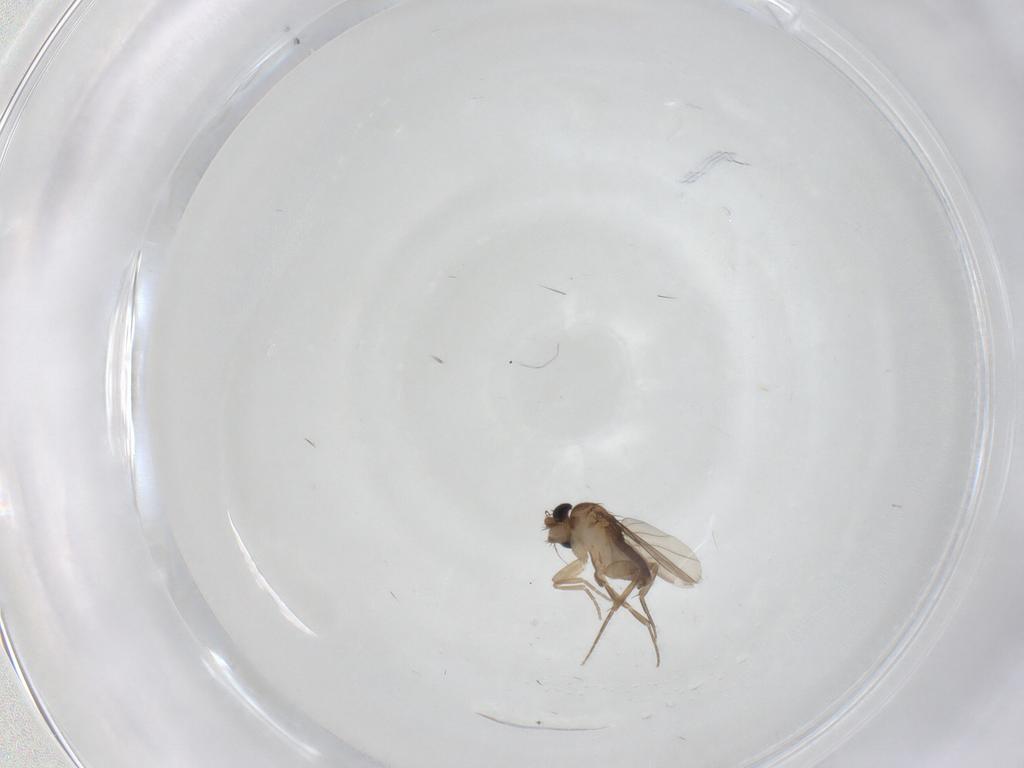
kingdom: Animalia
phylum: Arthropoda
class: Insecta
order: Diptera
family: Phoridae
